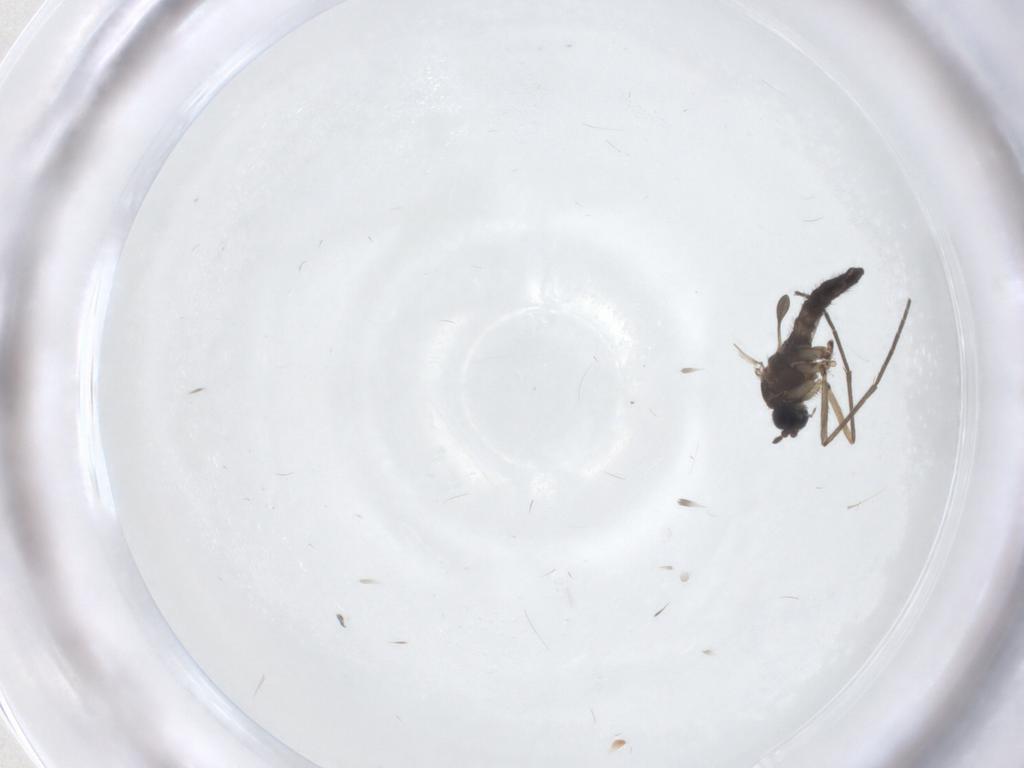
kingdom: Animalia
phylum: Arthropoda
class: Insecta
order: Diptera
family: Sciaridae
